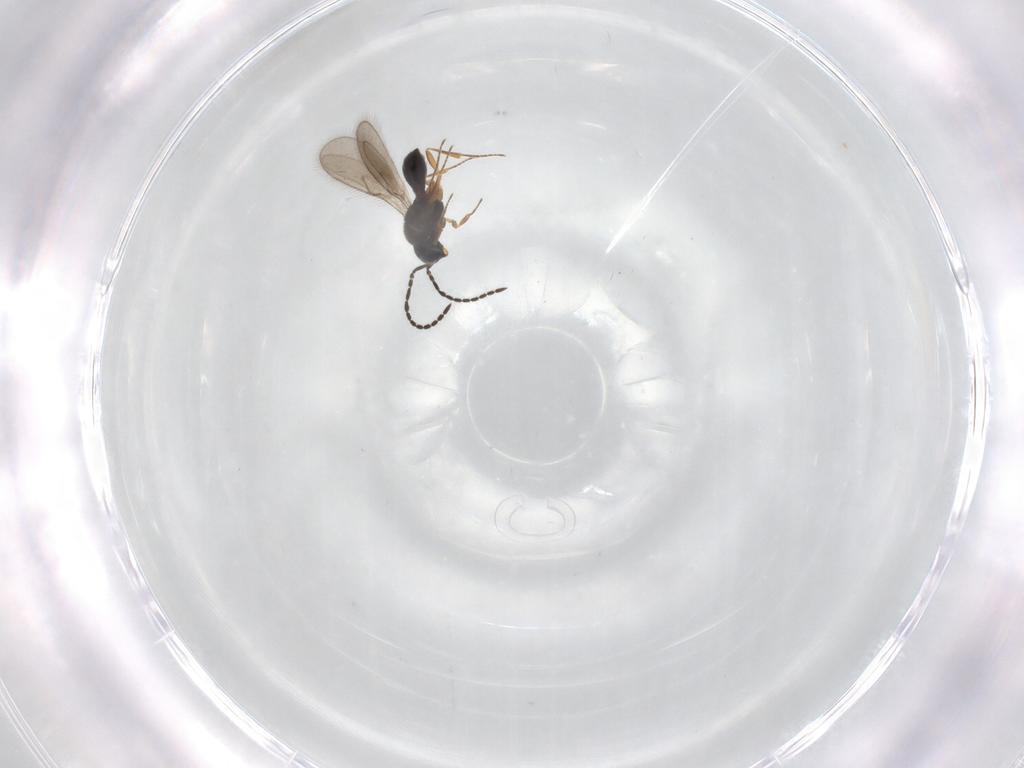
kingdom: Animalia
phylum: Arthropoda
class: Insecta
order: Hymenoptera
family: Scelionidae
